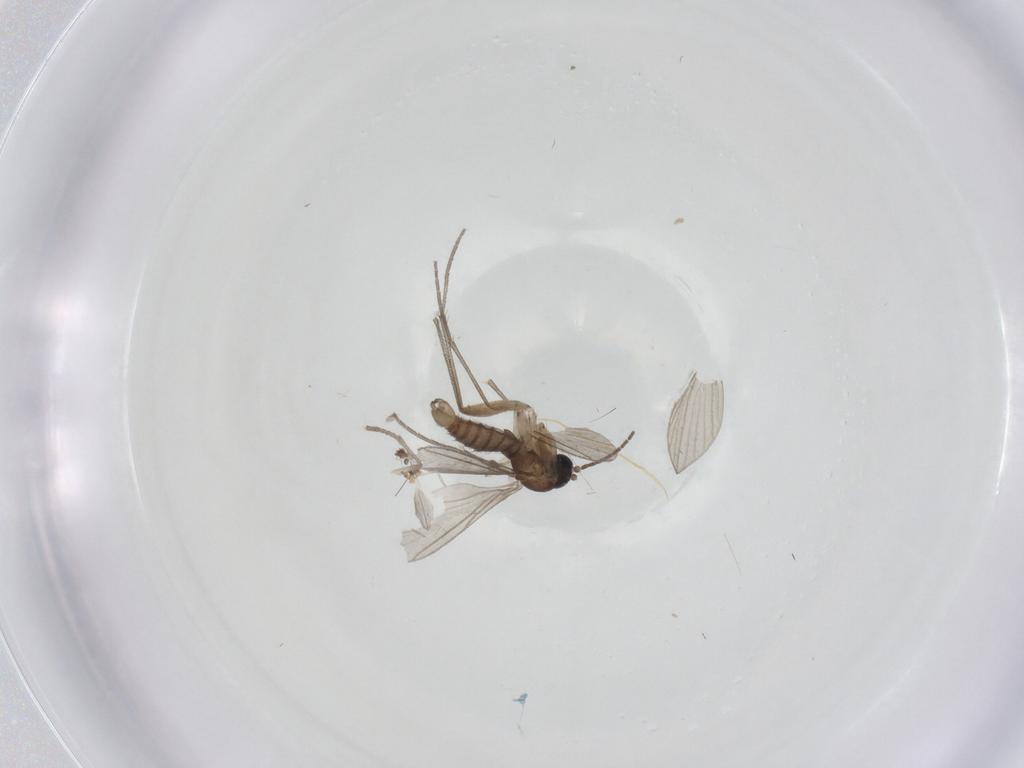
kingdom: Animalia
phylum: Arthropoda
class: Insecta
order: Diptera
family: Sciaridae
